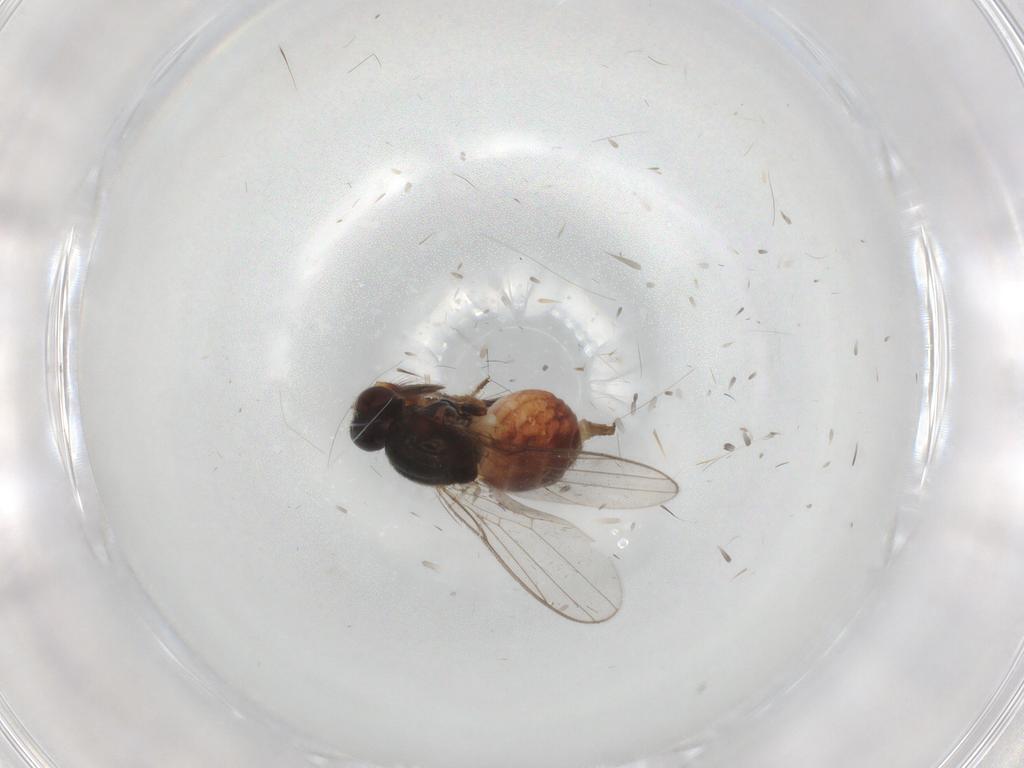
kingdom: Animalia
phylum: Arthropoda
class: Insecta
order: Diptera
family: Chloropidae
